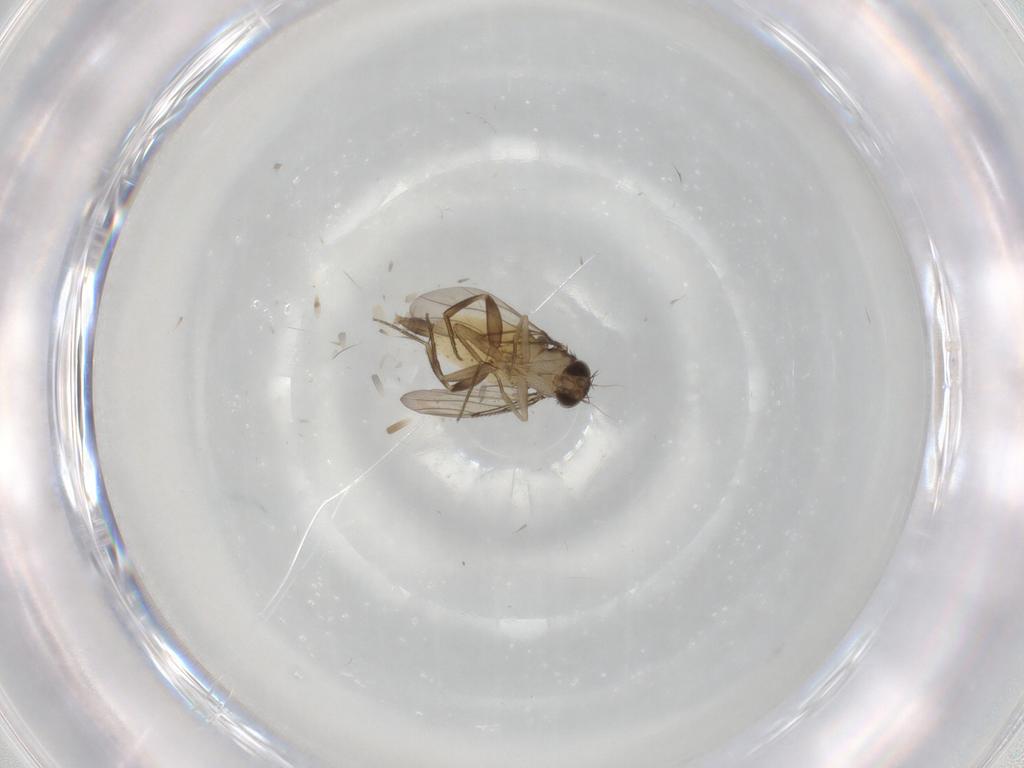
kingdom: Animalia
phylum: Arthropoda
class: Insecta
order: Diptera
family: Phoridae
